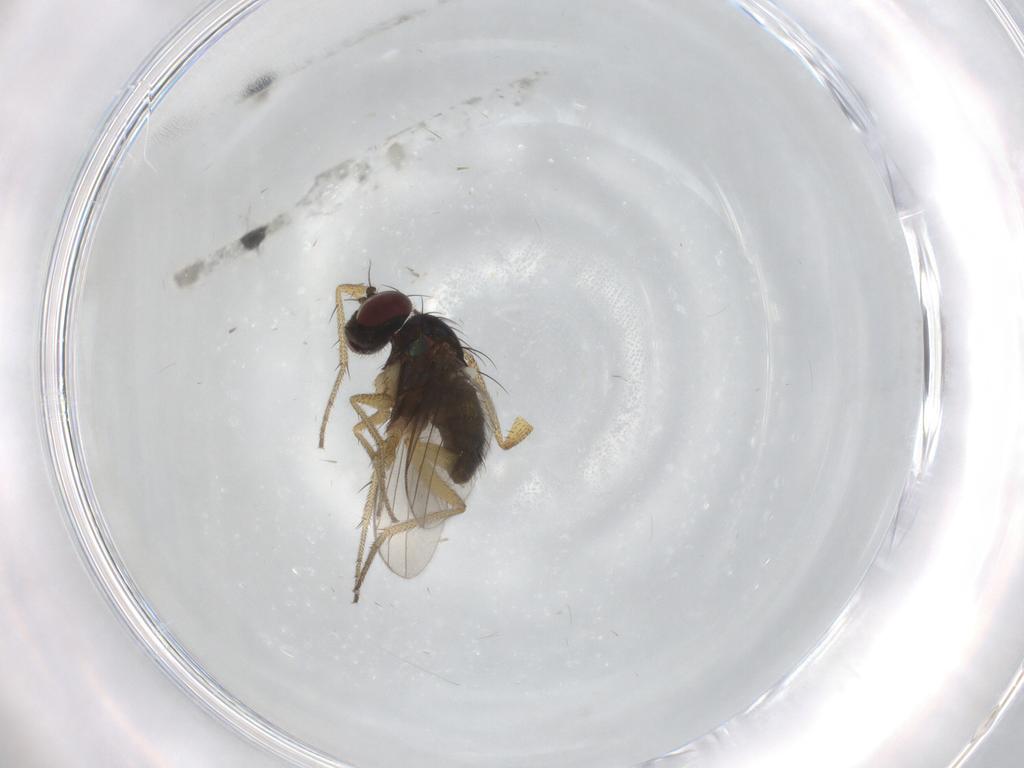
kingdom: Animalia
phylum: Arthropoda
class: Insecta
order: Diptera
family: Dolichopodidae
